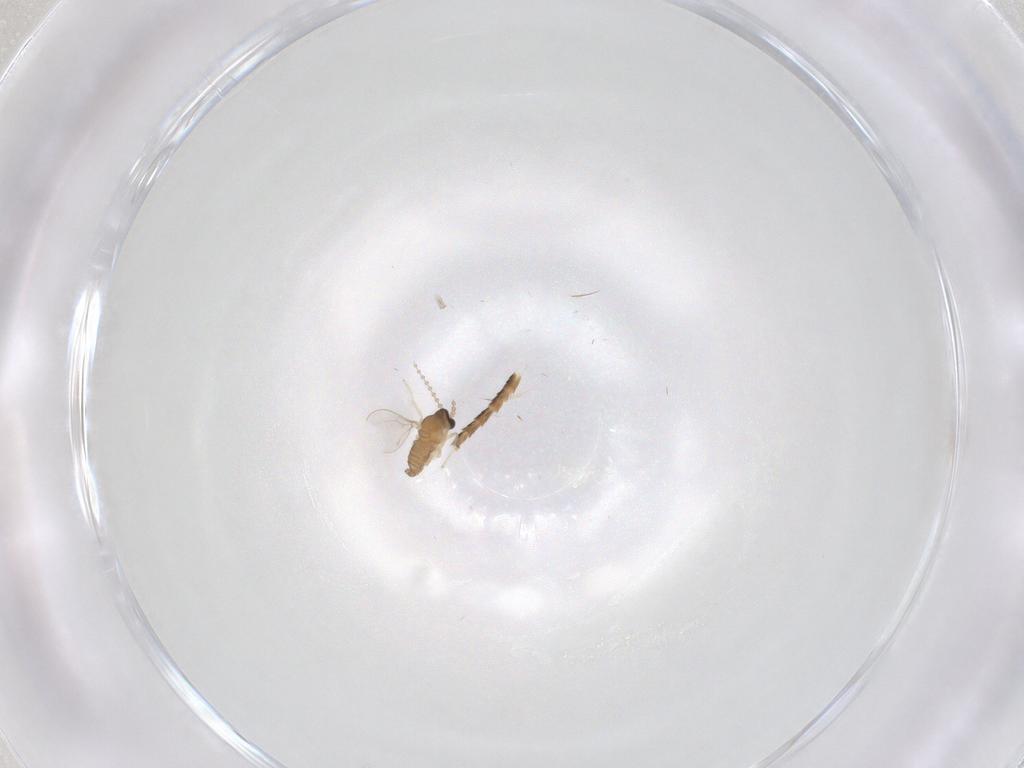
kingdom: Animalia
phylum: Arthropoda
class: Insecta
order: Diptera
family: Cecidomyiidae
